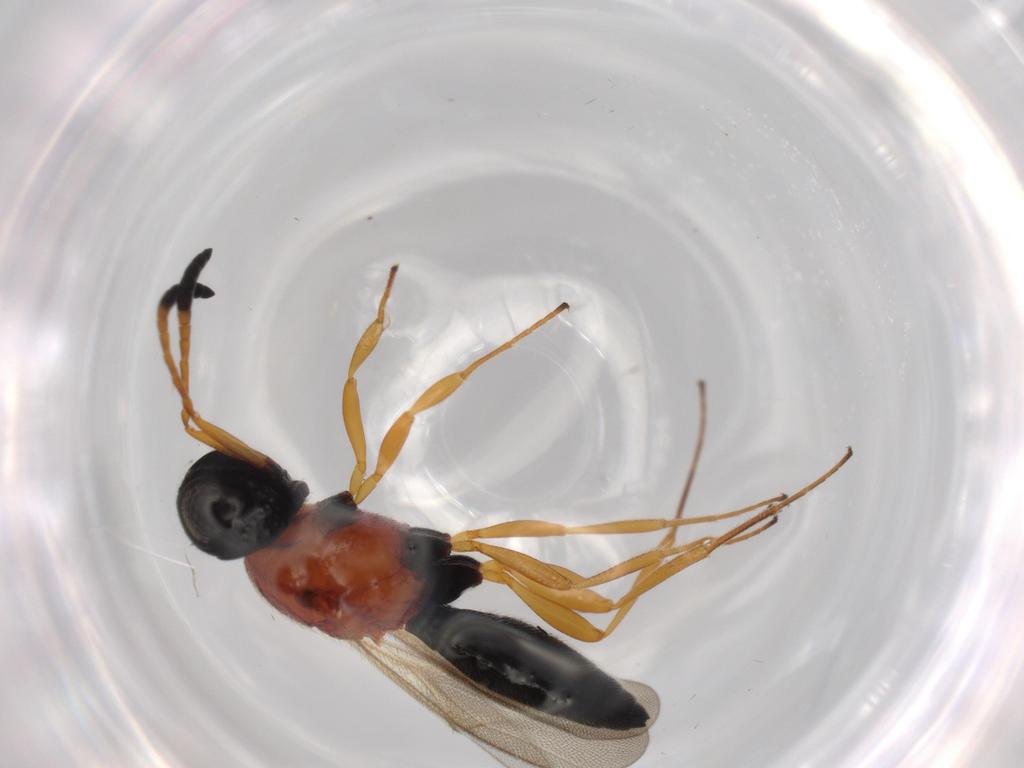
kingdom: Animalia
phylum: Arthropoda
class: Insecta
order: Hymenoptera
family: Scelionidae
